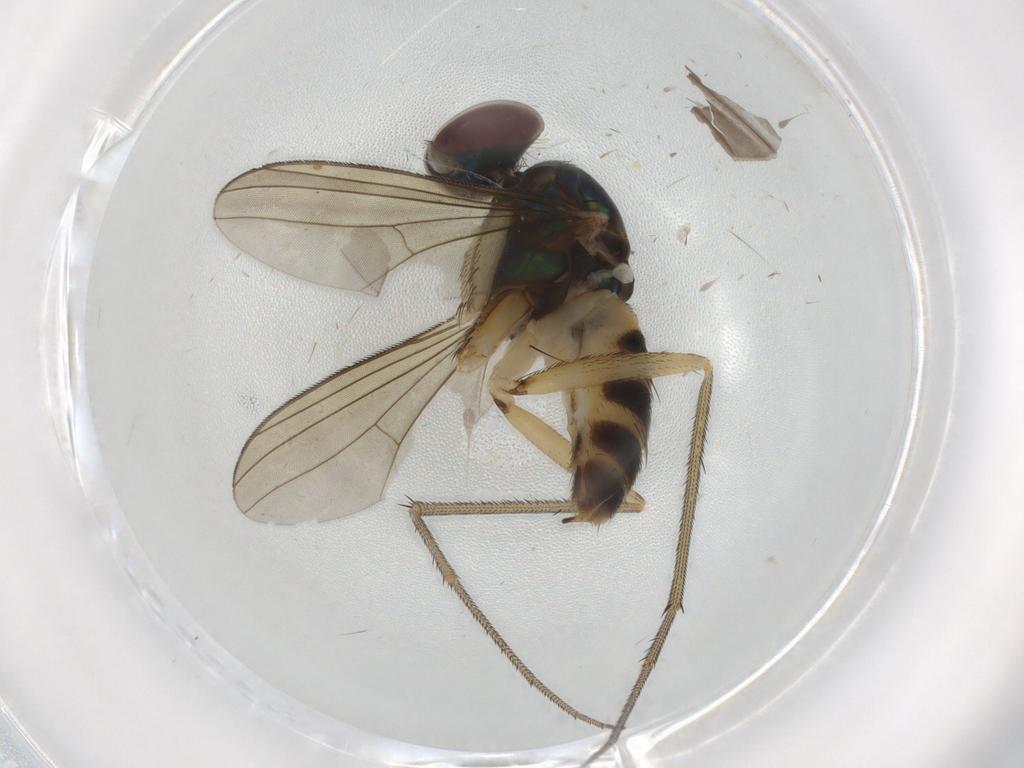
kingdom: Animalia
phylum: Arthropoda
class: Insecta
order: Diptera
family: Dolichopodidae
